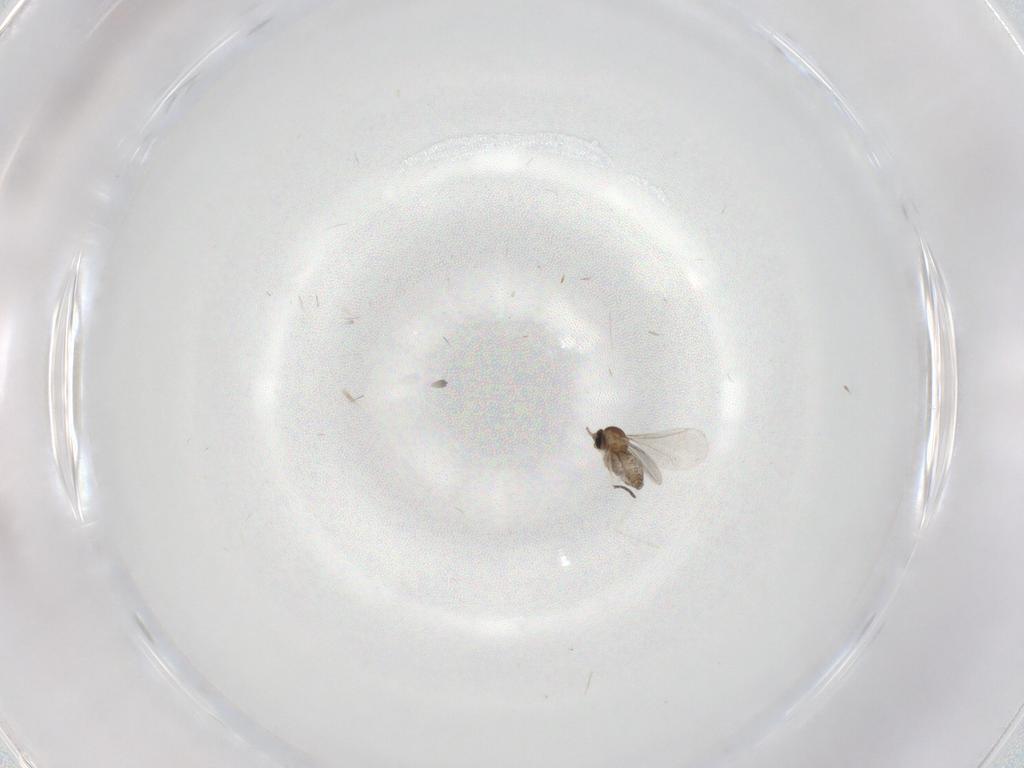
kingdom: Animalia
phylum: Arthropoda
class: Insecta
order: Diptera
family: Cecidomyiidae
